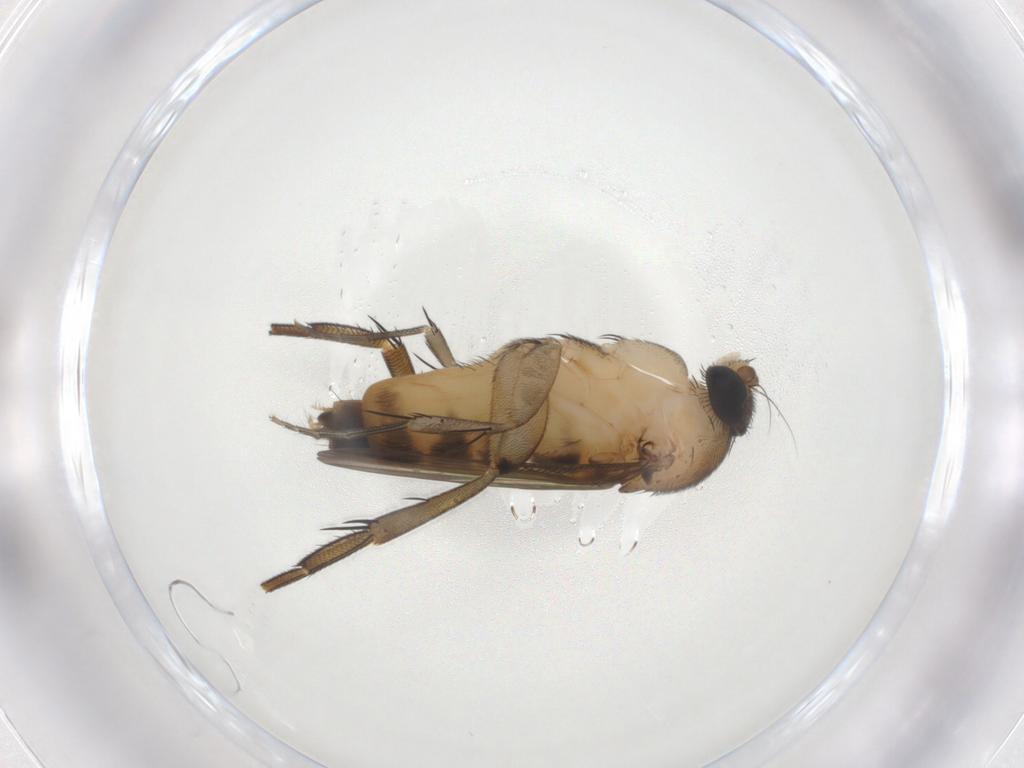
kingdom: Animalia
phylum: Arthropoda
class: Insecta
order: Diptera
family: Phoridae
